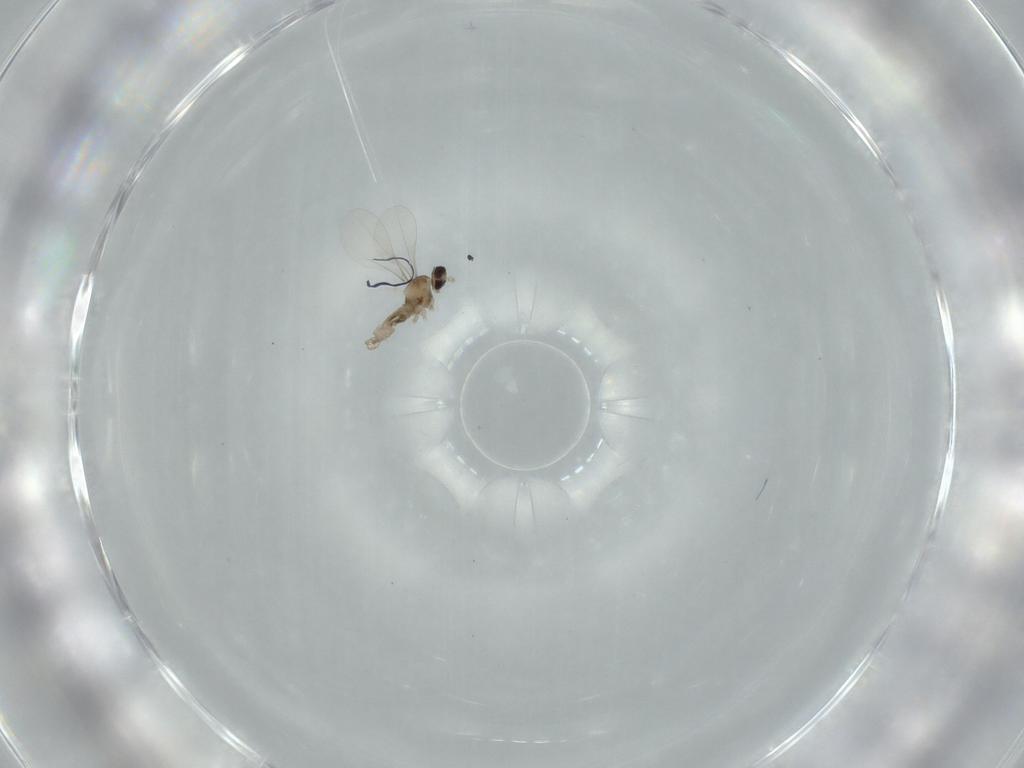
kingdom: Animalia
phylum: Arthropoda
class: Insecta
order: Diptera
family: Cecidomyiidae
